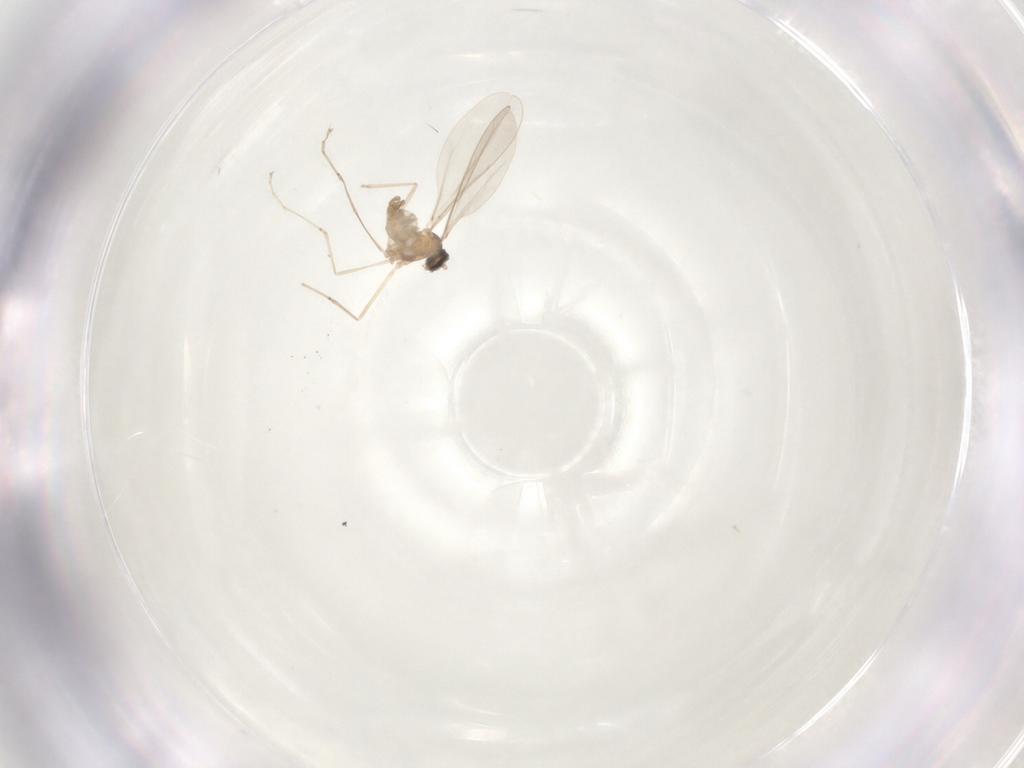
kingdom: Animalia
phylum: Arthropoda
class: Insecta
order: Diptera
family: Cecidomyiidae
